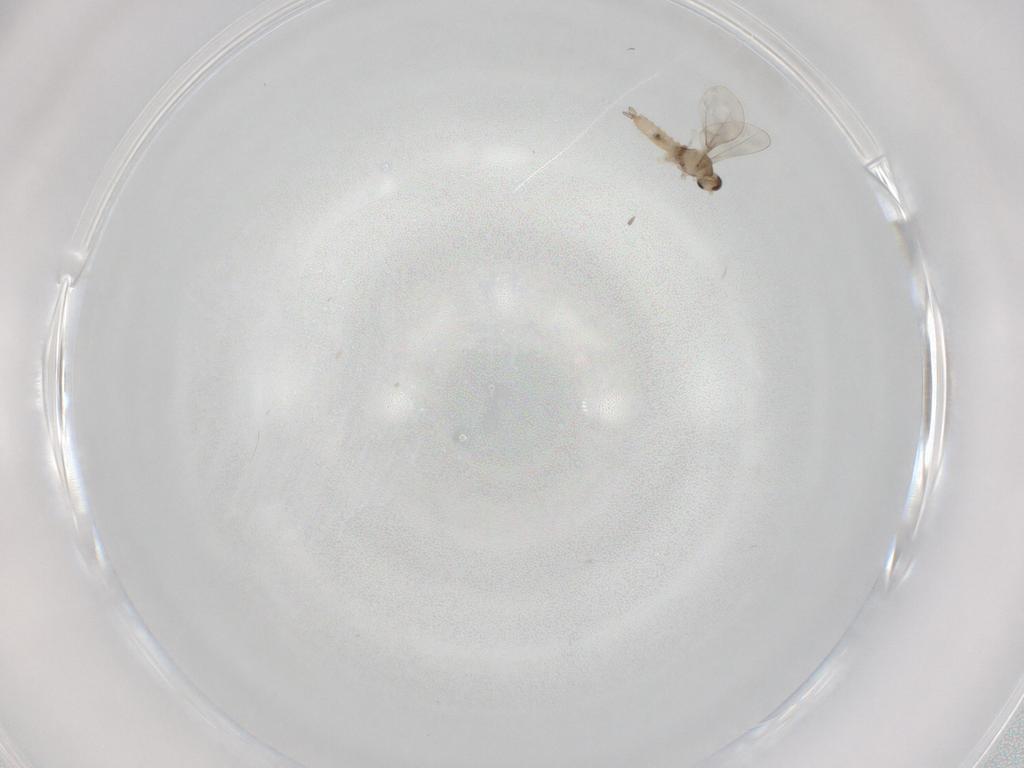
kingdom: Animalia
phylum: Arthropoda
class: Insecta
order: Diptera
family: Cecidomyiidae
